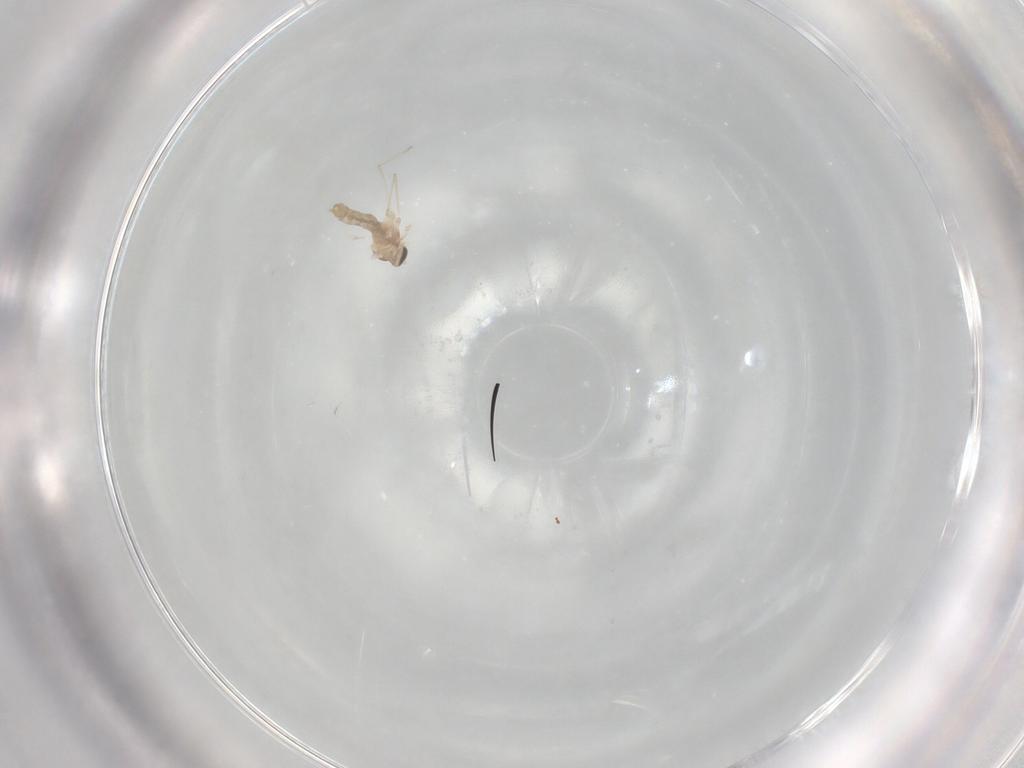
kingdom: Animalia
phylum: Arthropoda
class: Insecta
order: Diptera
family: Cecidomyiidae
